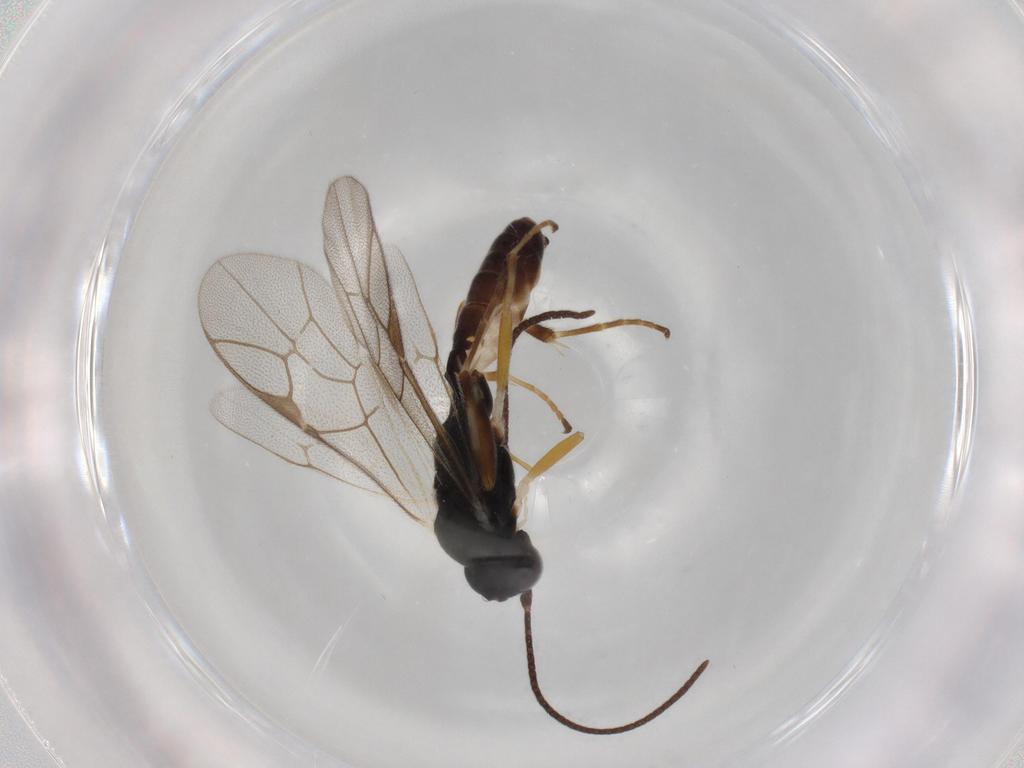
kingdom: Animalia
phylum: Arthropoda
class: Insecta
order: Hymenoptera
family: Ichneumonidae
